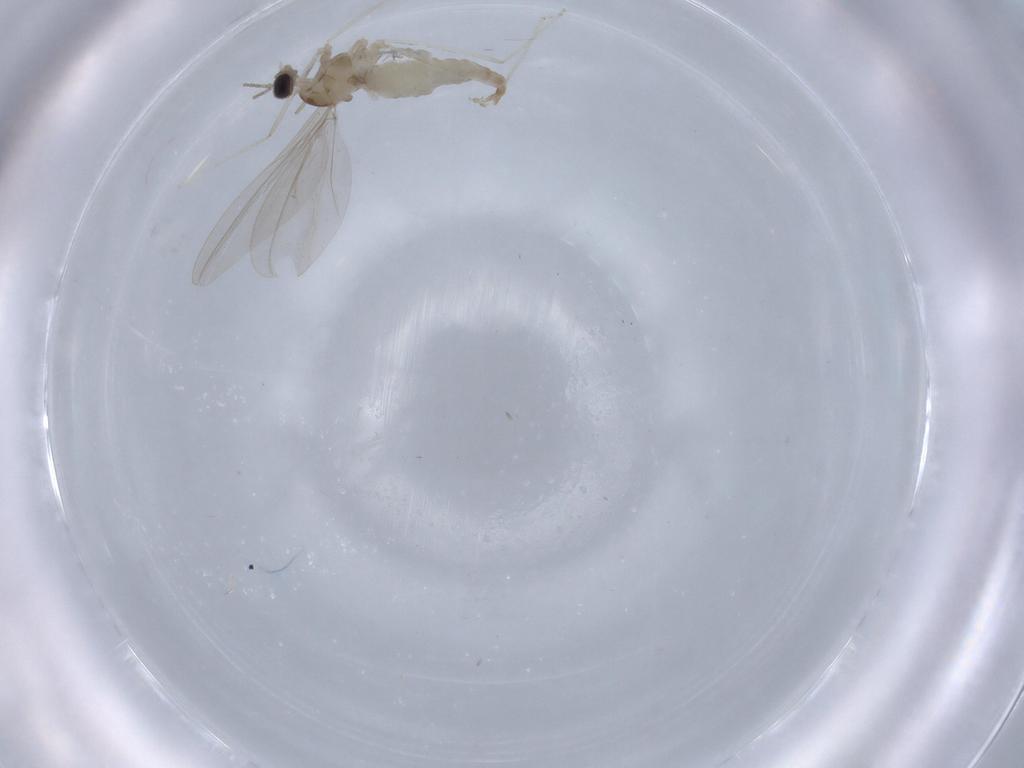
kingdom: Animalia
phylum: Arthropoda
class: Insecta
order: Diptera
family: Cecidomyiidae
